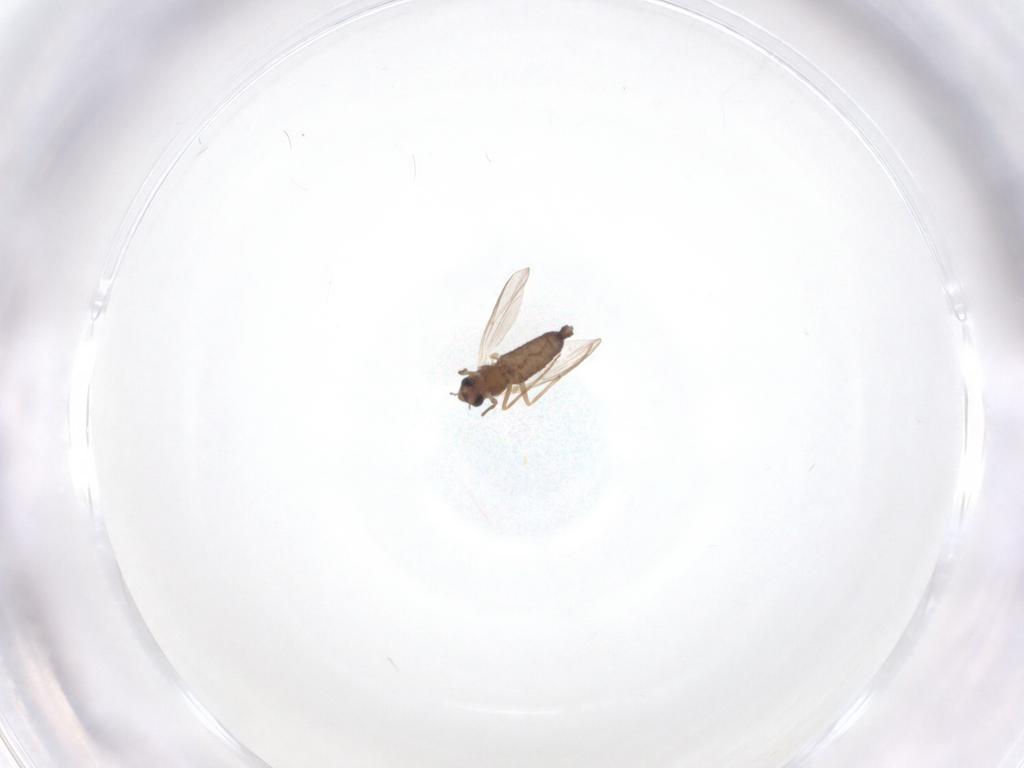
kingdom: Animalia
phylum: Arthropoda
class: Insecta
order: Diptera
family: Chironomidae
